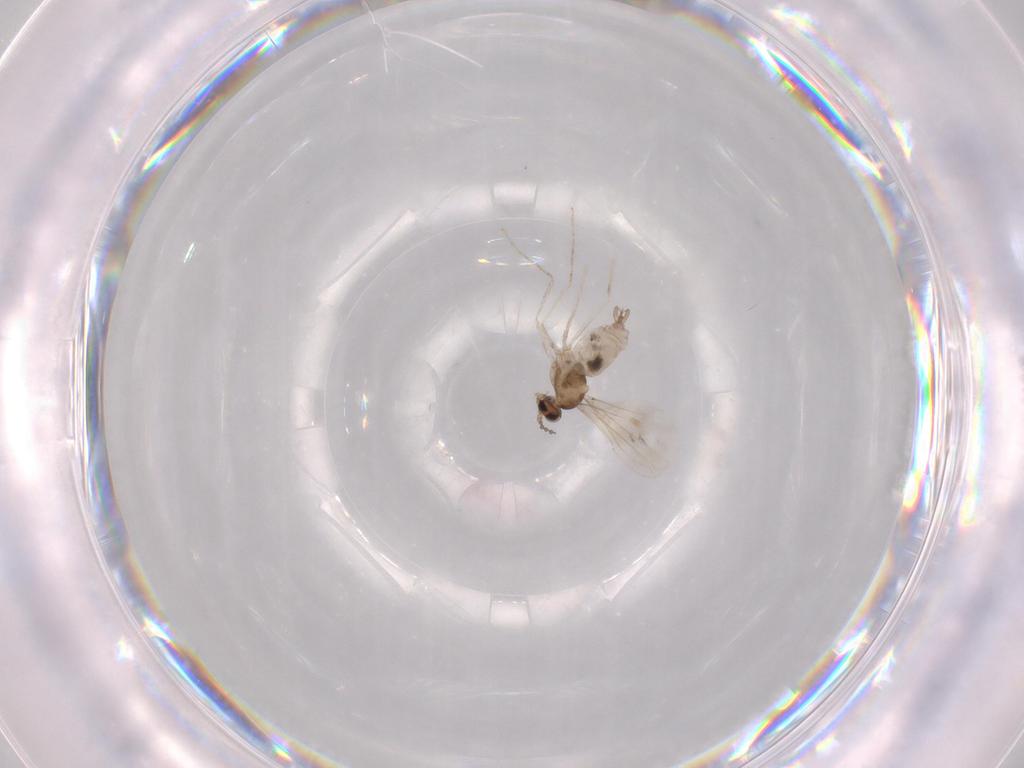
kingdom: Animalia
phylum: Arthropoda
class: Insecta
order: Diptera
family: Cecidomyiidae
